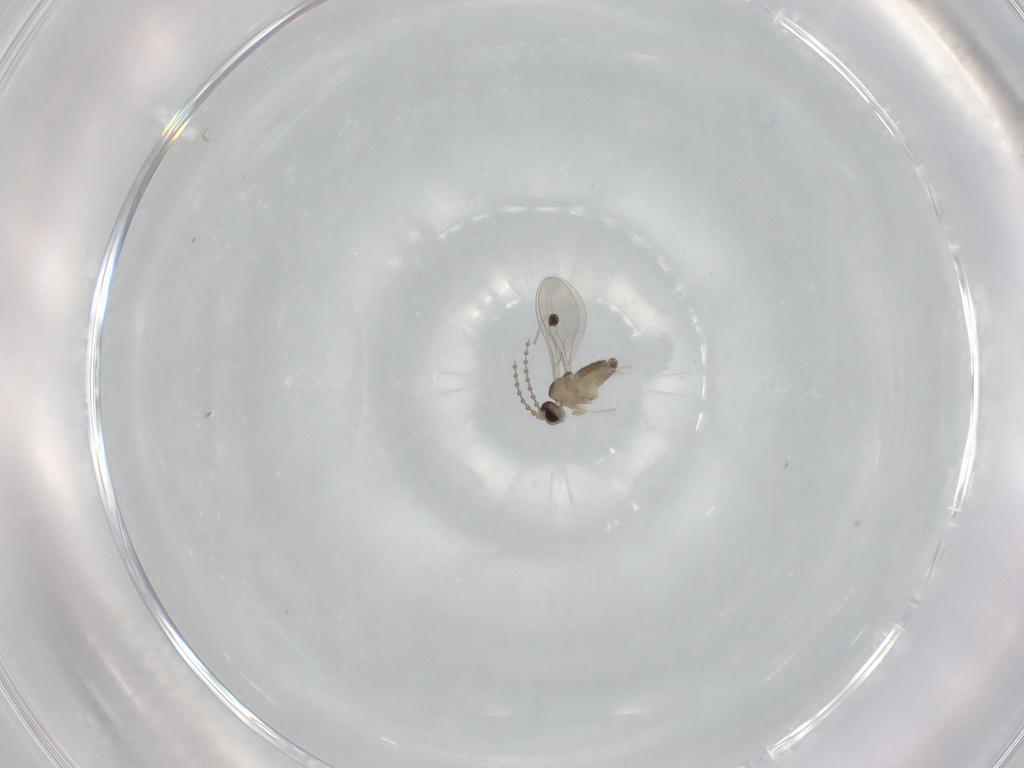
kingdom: Animalia
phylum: Arthropoda
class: Insecta
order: Diptera
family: Cecidomyiidae
